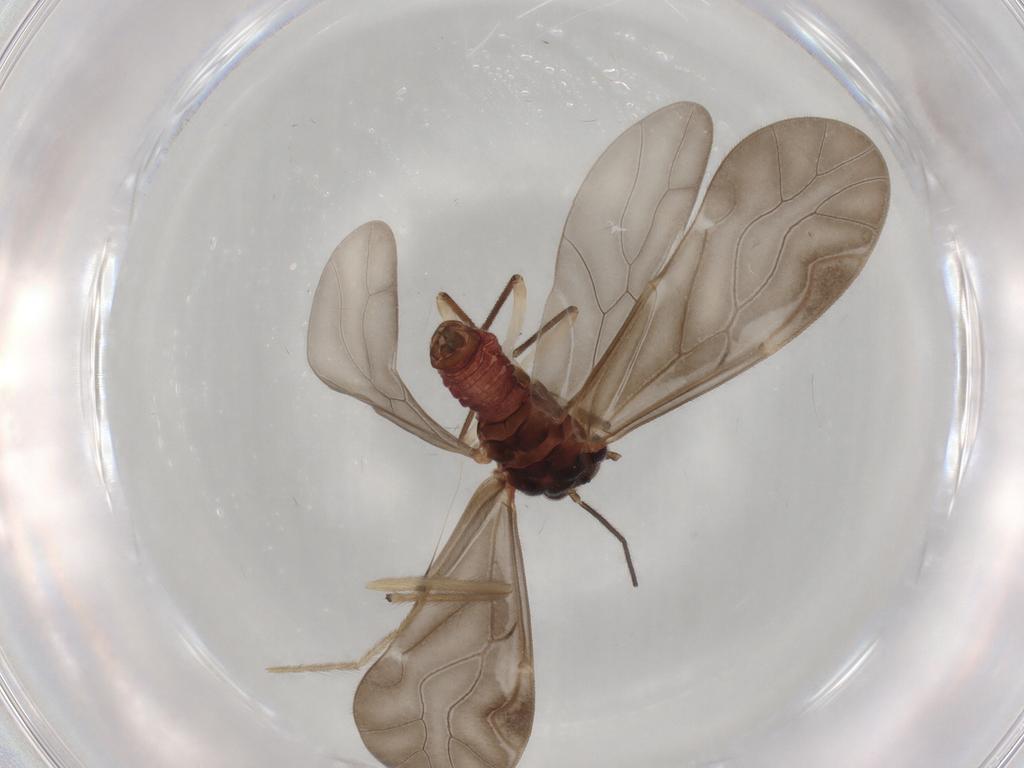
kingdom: Animalia
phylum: Arthropoda
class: Insecta
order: Psocodea
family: Caeciliusidae
